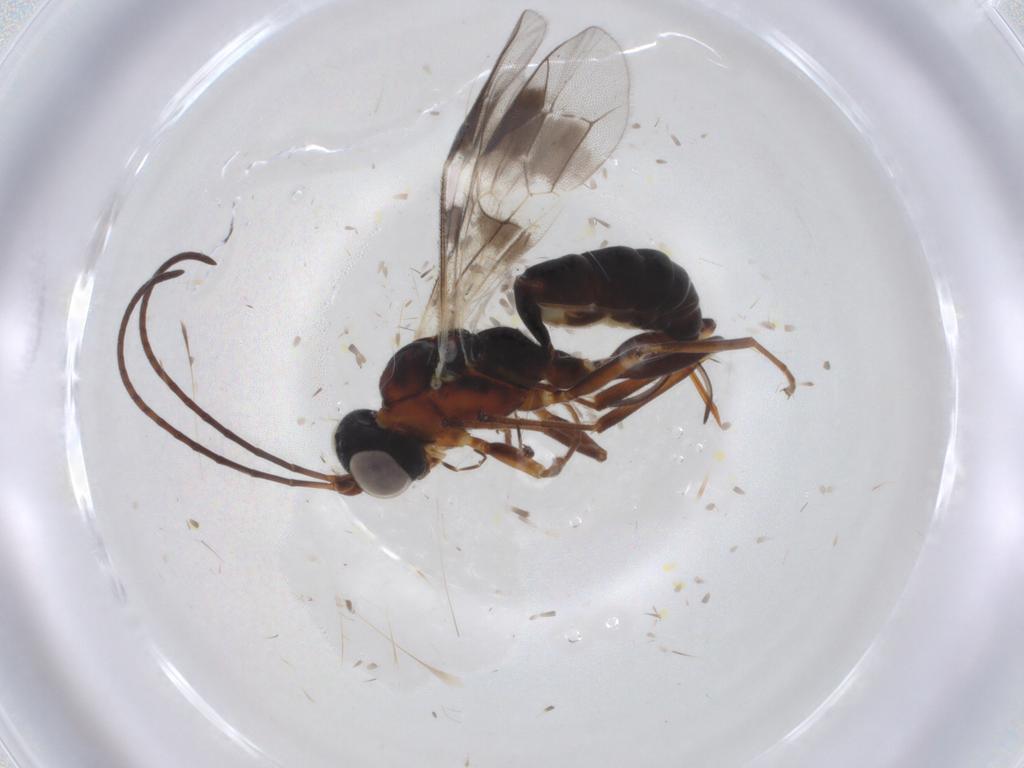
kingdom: Animalia
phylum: Arthropoda
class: Insecta
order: Hymenoptera
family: Ichneumonidae
